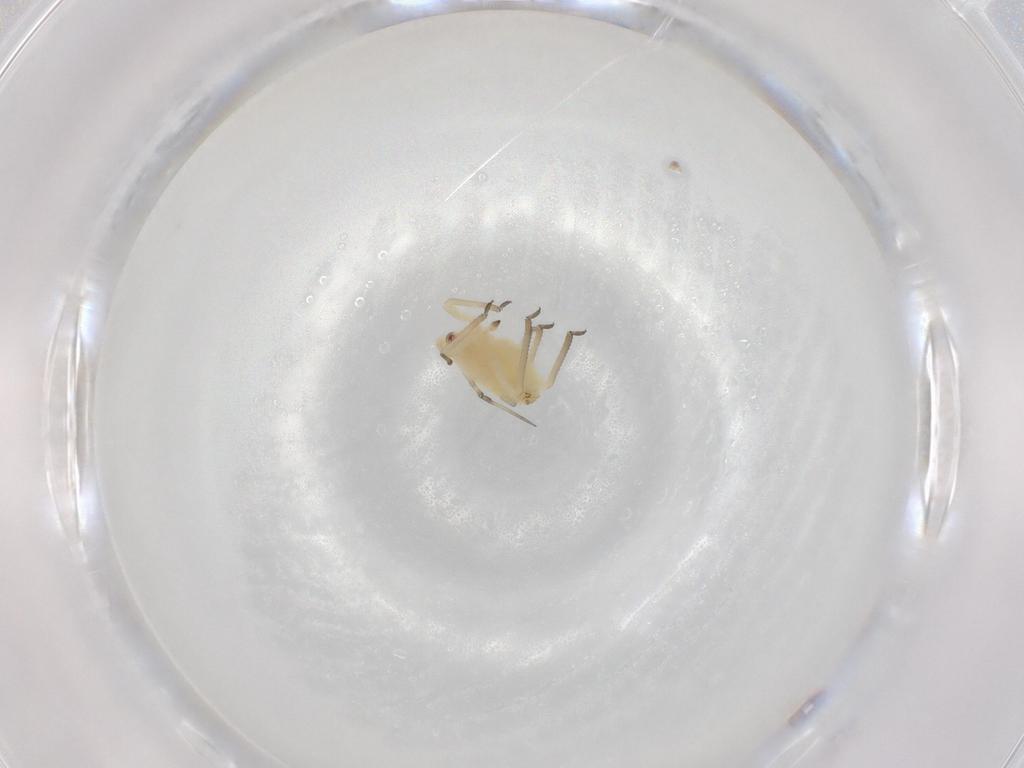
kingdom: Animalia
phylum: Arthropoda
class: Insecta
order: Hemiptera
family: Aphididae
